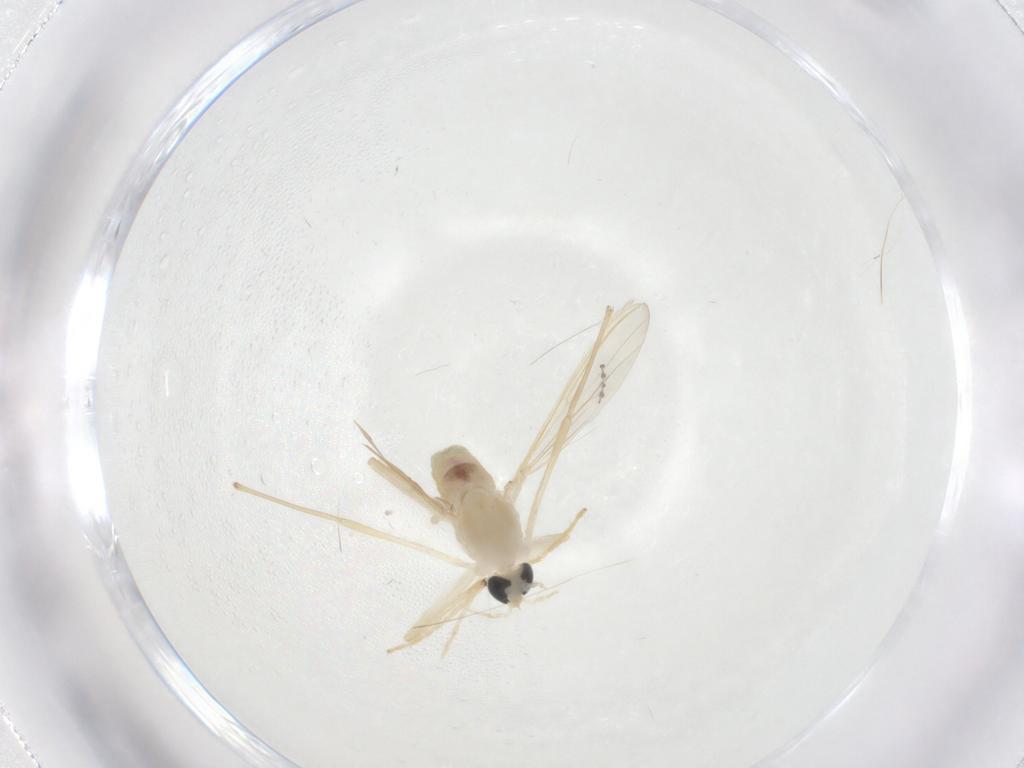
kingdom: Animalia
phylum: Arthropoda
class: Insecta
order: Diptera
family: Chironomidae
